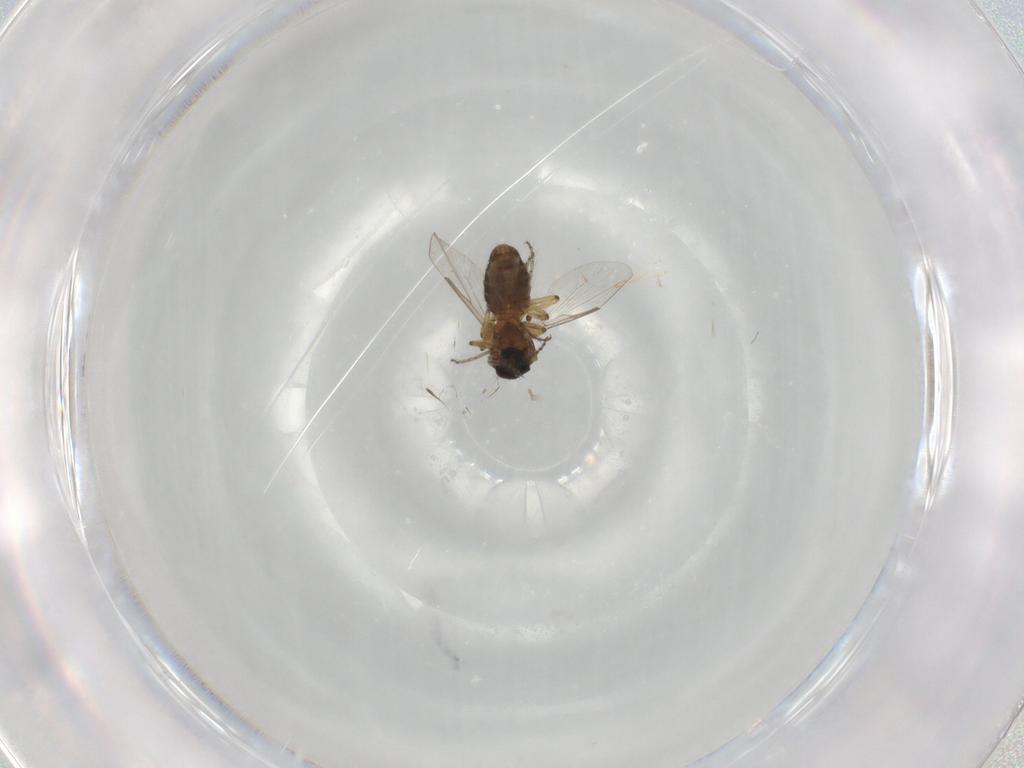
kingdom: Animalia
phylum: Arthropoda
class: Insecta
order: Diptera
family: Ceratopogonidae
